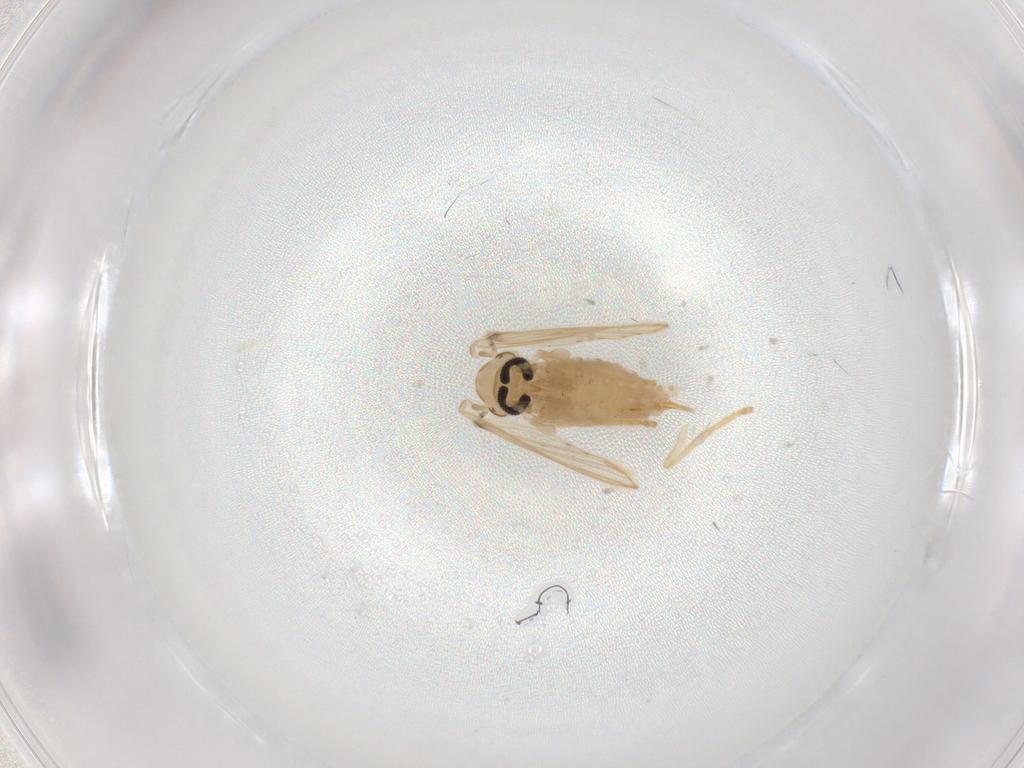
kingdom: Animalia
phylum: Arthropoda
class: Insecta
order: Diptera
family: Psychodidae
